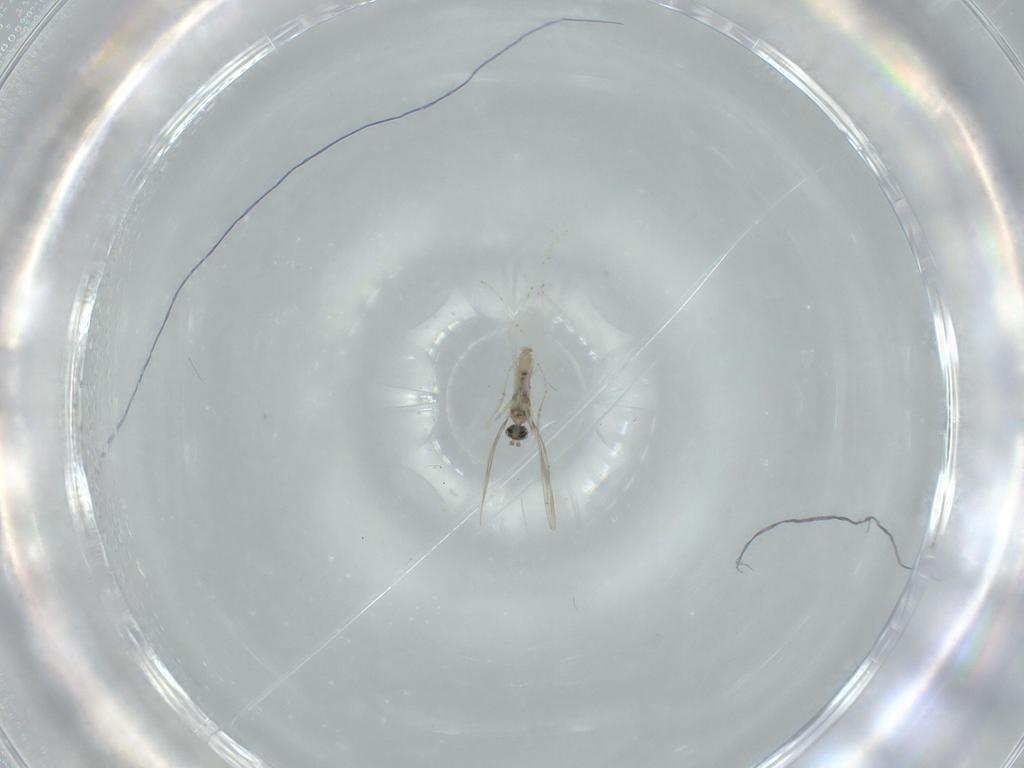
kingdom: Animalia
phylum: Arthropoda
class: Insecta
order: Diptera
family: Cecidomyiidae
